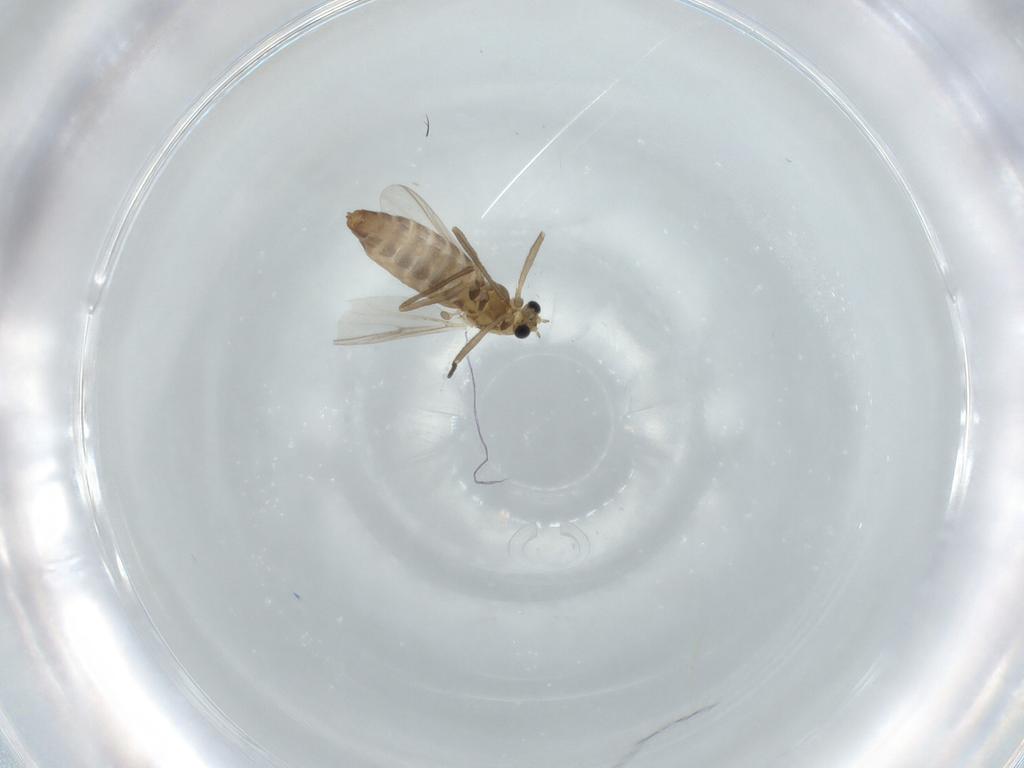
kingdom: Animalia
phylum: Arthropoda
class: Insecta
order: Diptera
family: Chironomidae
